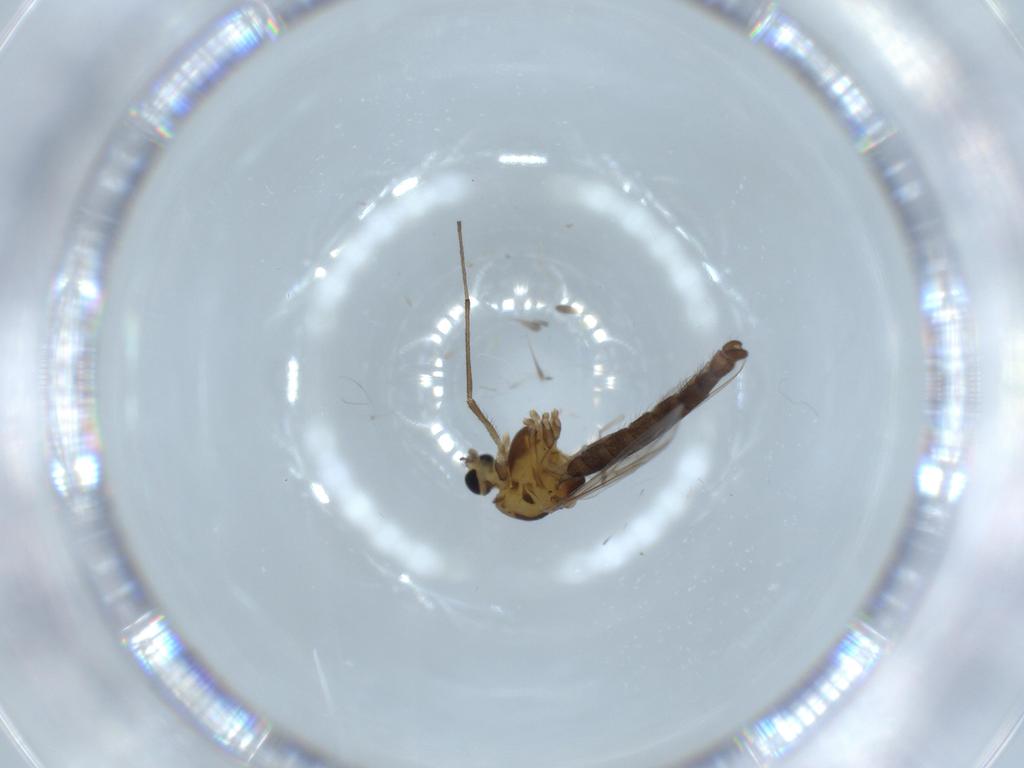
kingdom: Animalia
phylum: Arthropoda
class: Insecta
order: Diptera
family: Chironomidae
